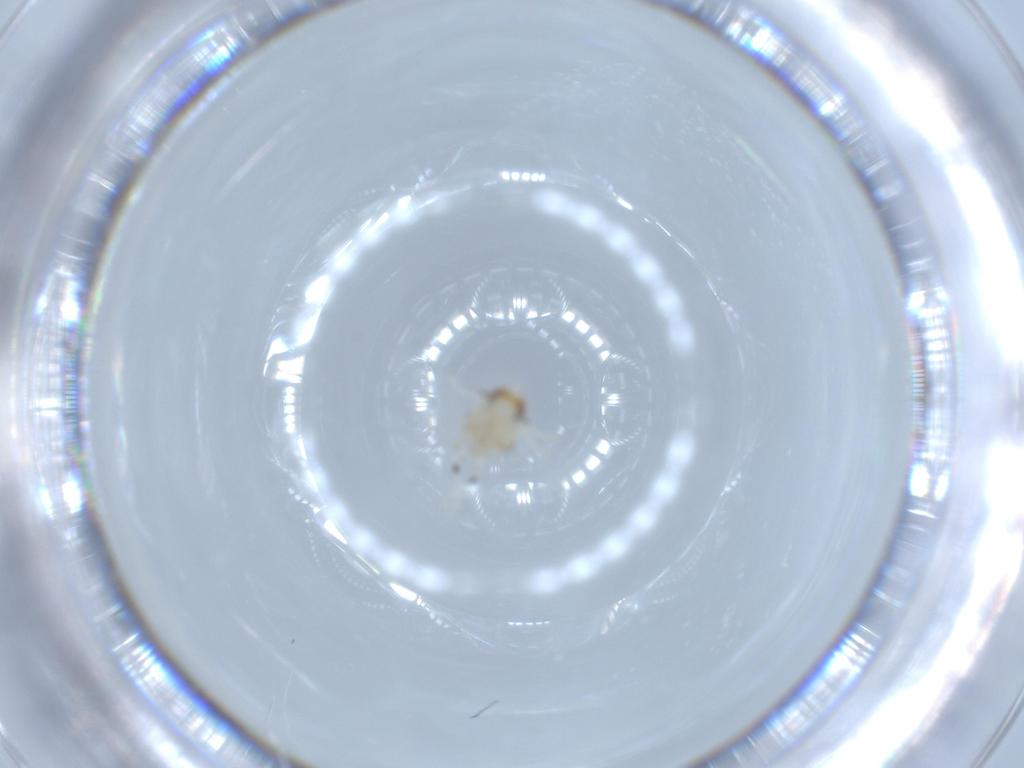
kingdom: Animalia
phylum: Arthropoda
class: Insecta
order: Hemiptera
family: Issidae
